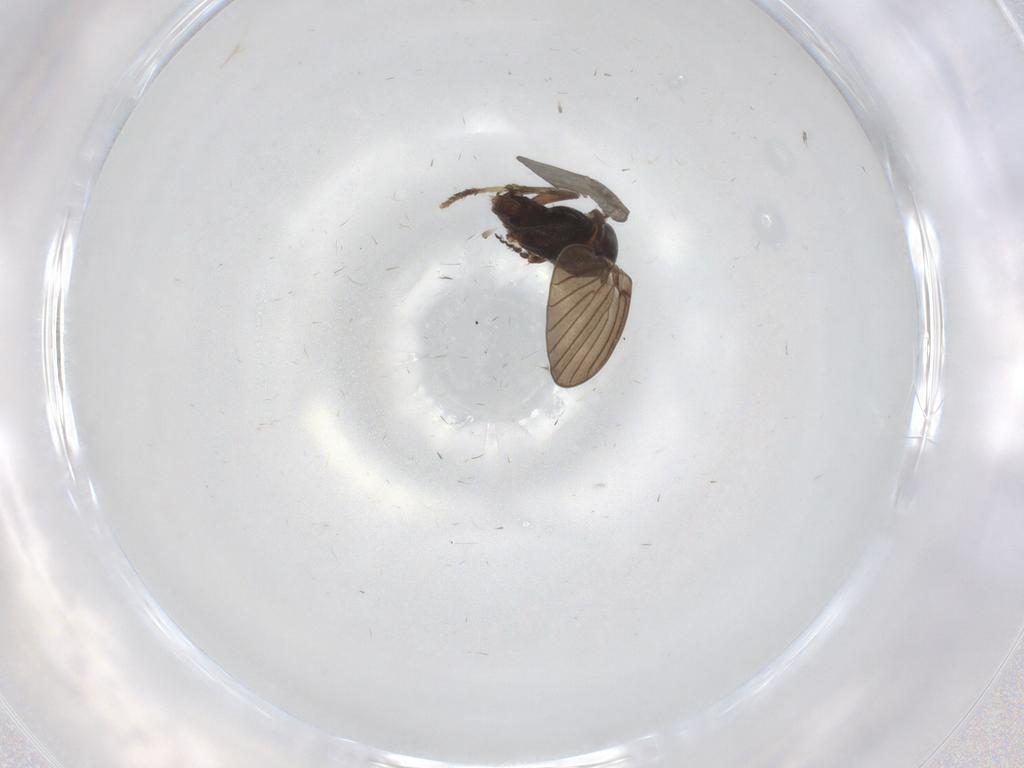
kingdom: Animalia
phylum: Arthropoda
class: Insecta
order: Diptera
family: Psychodidae
